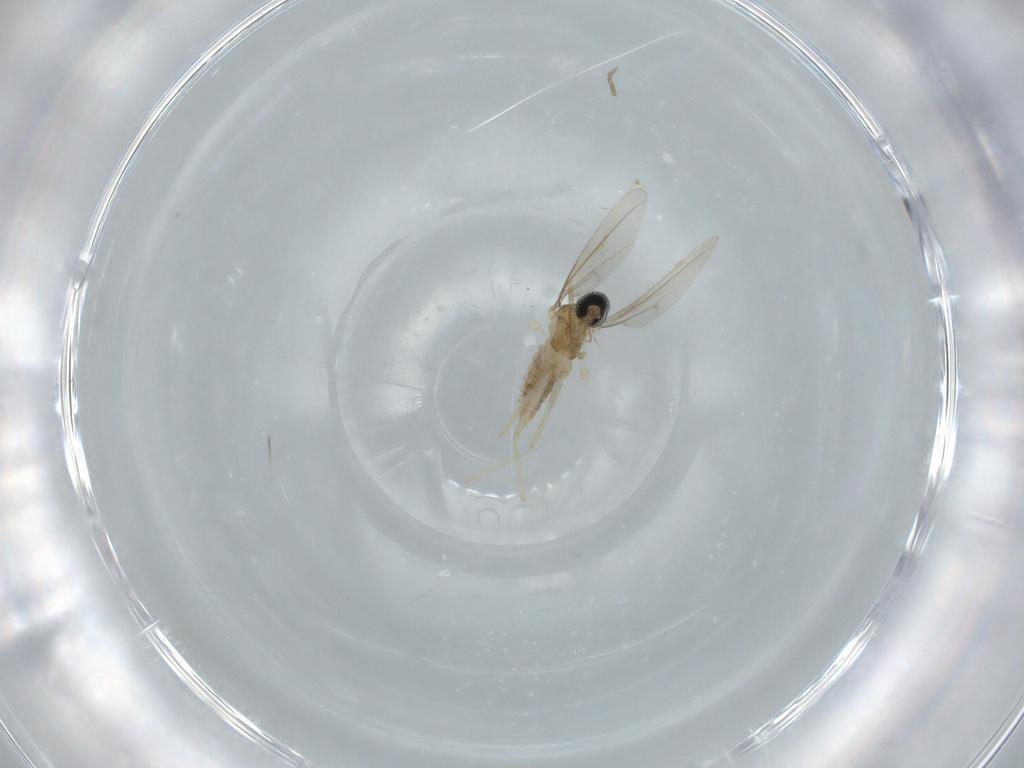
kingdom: Animalia
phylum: Arthropoda
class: Insecta
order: Diptera
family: Cecidomyiidae
